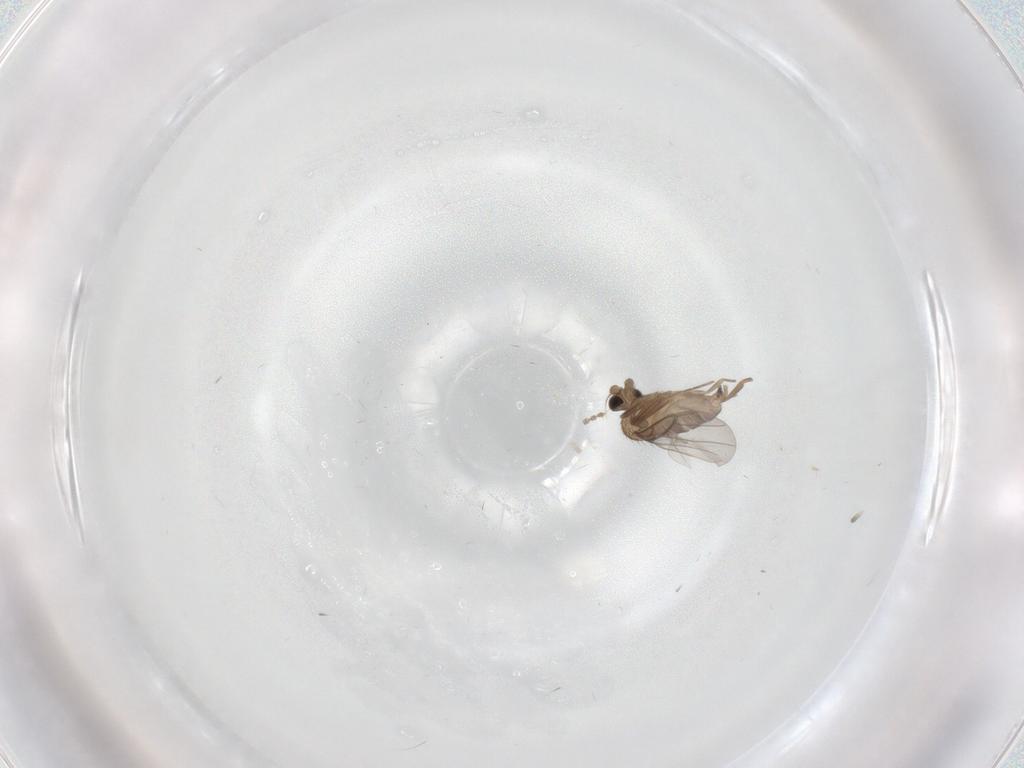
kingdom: Animalia
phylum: Arthropoda
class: Insecta
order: Diptera
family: Cecidomyiidae
